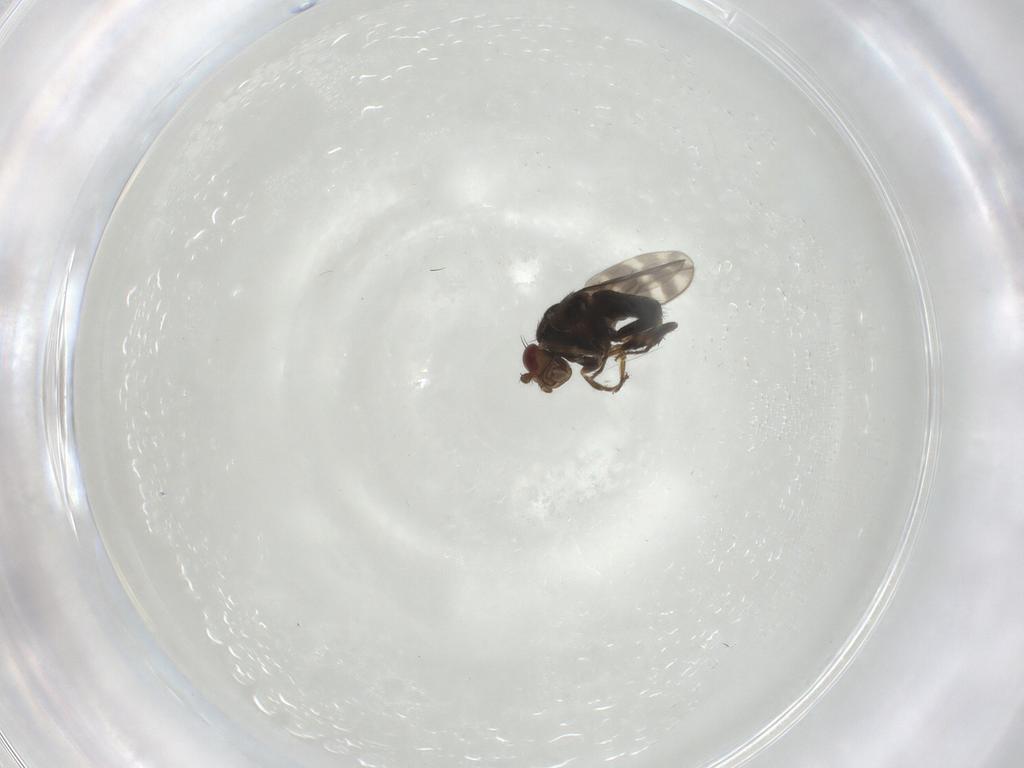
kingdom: Animalia
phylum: Arthropoda
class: Insecta
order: Diptera
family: Sphaeroceridae
